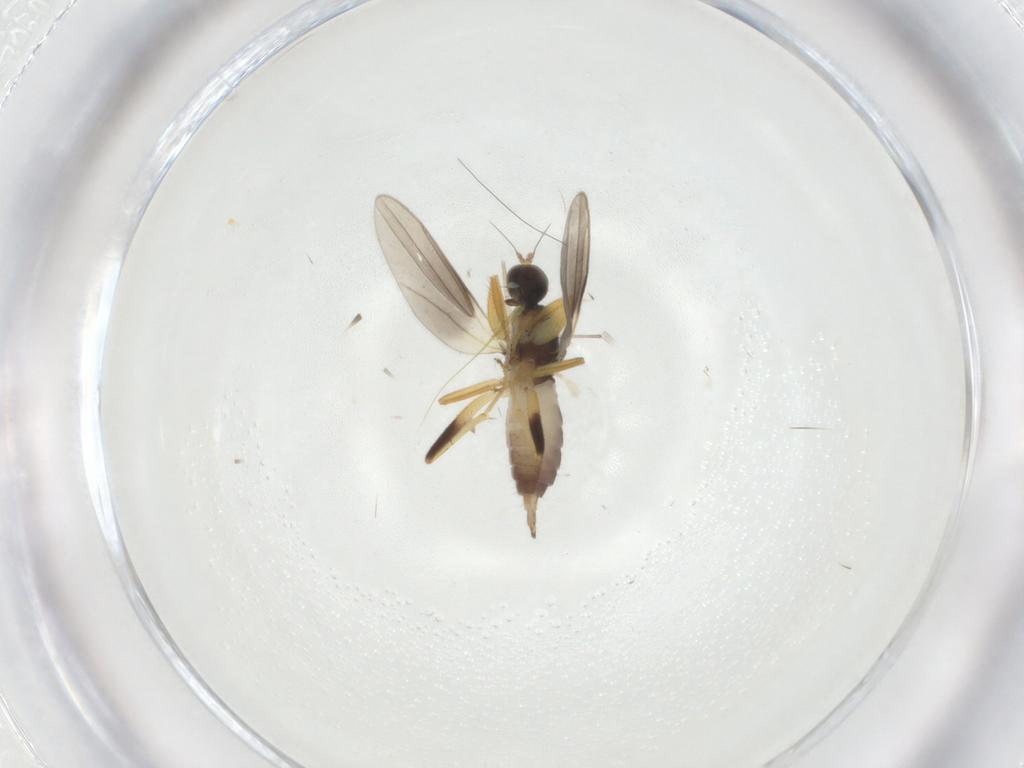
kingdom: Animalia
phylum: Arthropoda
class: Insecta
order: Diptera
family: Hybotidae
